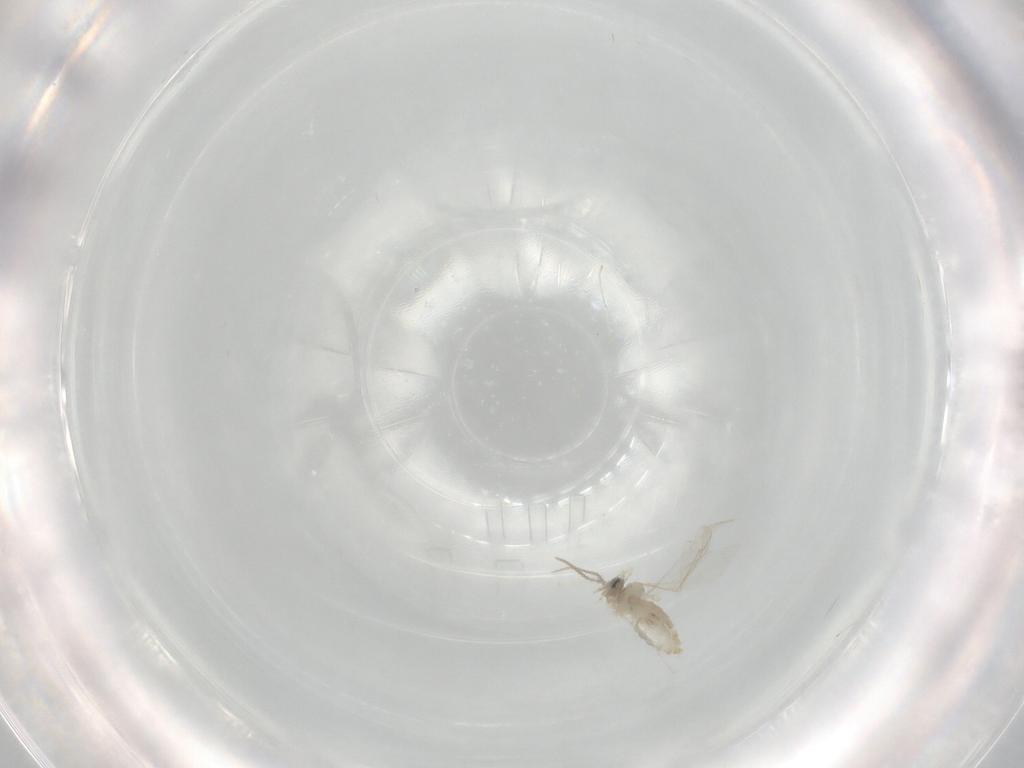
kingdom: Animalia
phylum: Arthropoda
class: Insecta
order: Diptera
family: Cecidomyiidae
